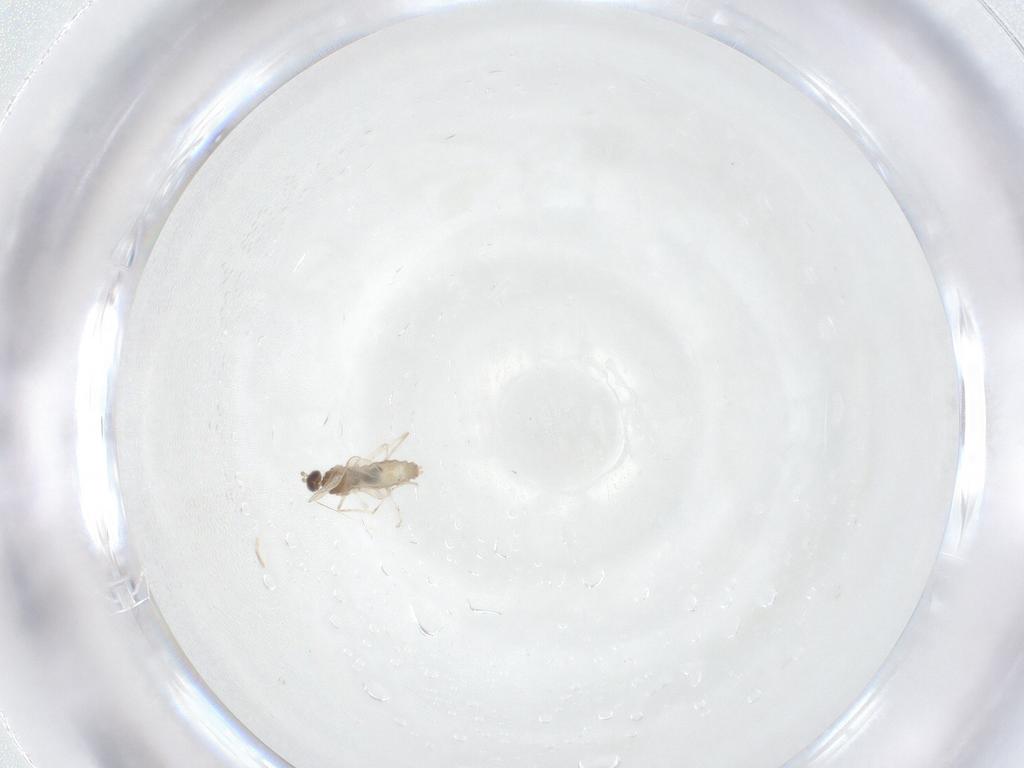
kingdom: Animalia
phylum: Arthropoda
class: Insecta
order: Diptera
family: Cecidomyiidae
